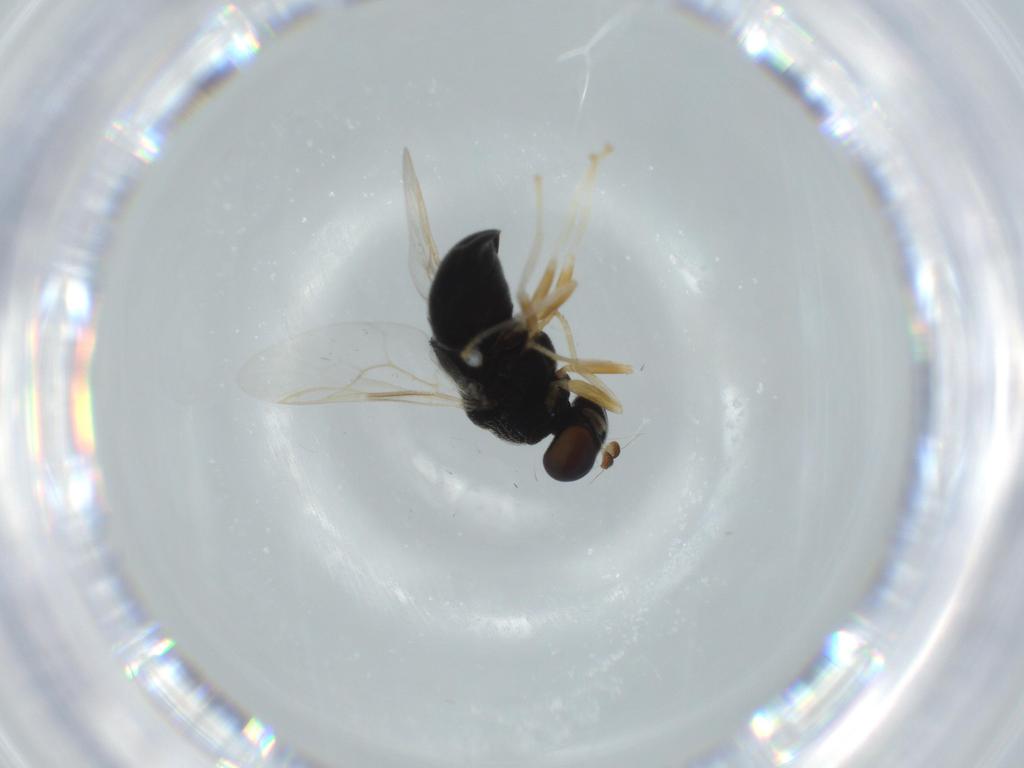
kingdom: Animalia
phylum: Arthropoda
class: Insecta
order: Diptera
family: Stratiomyidae
